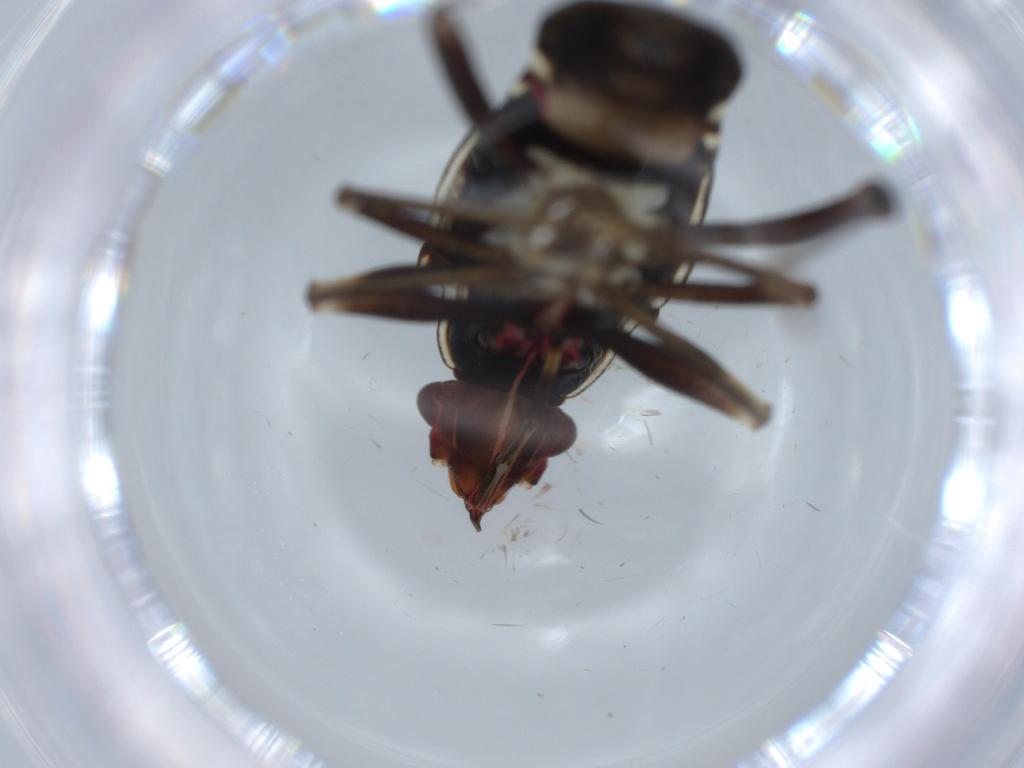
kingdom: Animalia
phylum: Arthropoda
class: Insecta
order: Hemiptera
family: Rhyparochromidae
